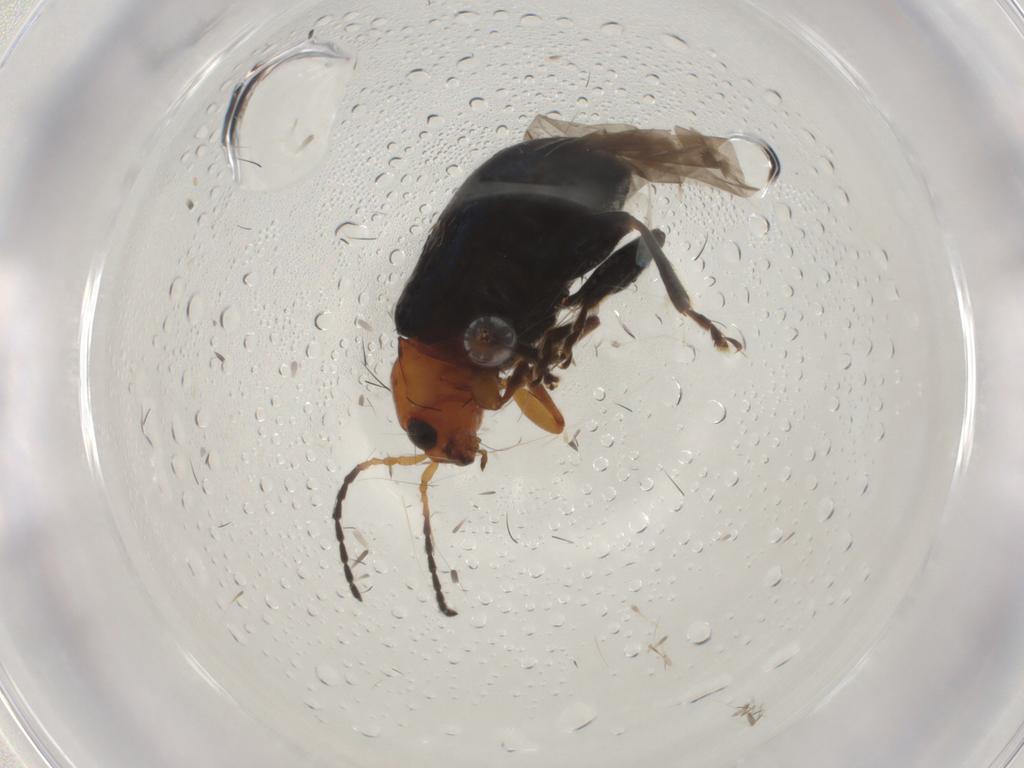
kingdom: Animalia
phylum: Arthropoda
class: Insecta
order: Coleoptera
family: Chrysomelidae
